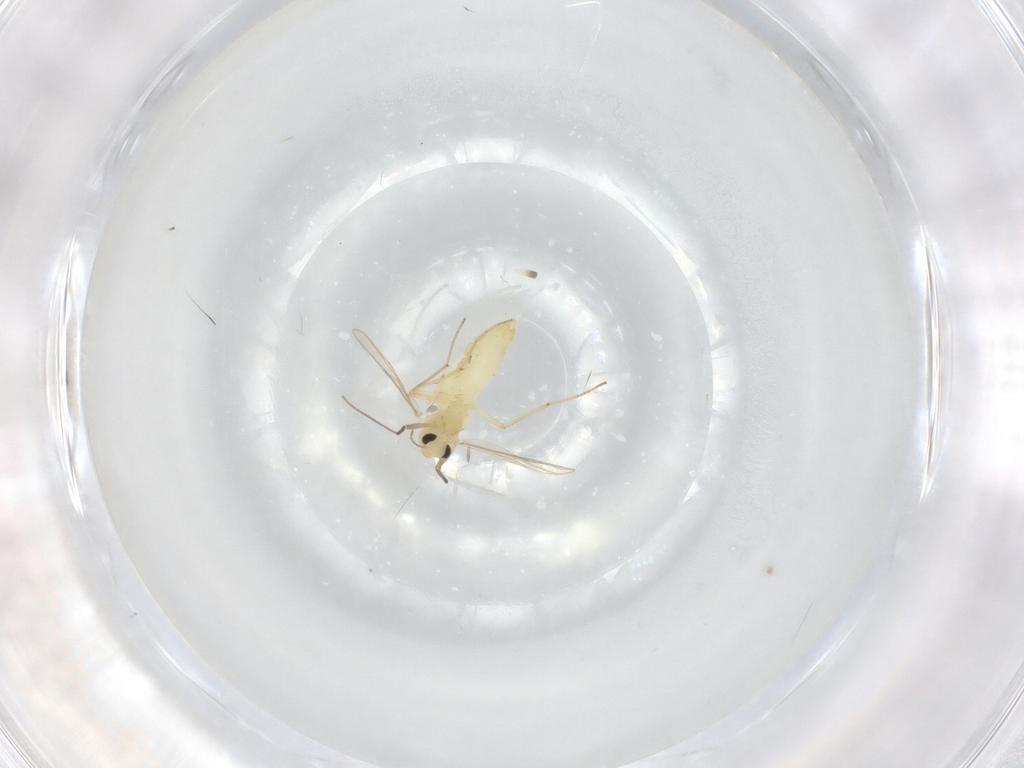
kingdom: Animalia
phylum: Arthropoda
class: Insecta
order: Diptera
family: Chironomidae
